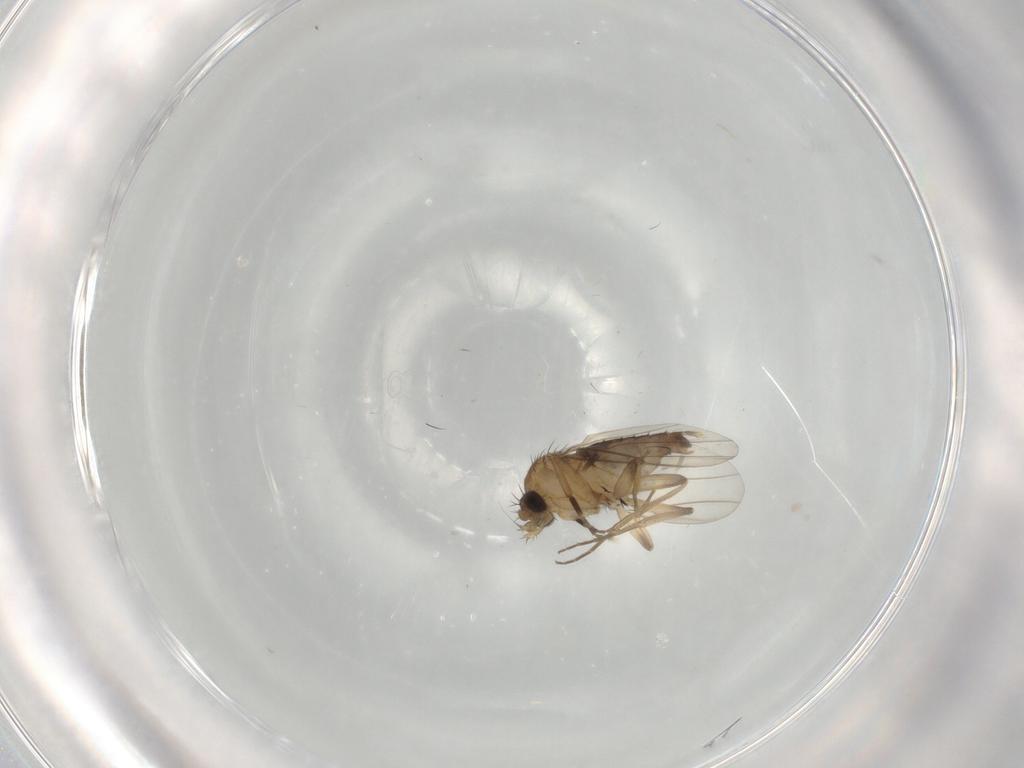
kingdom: Animalia
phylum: Arthropoda
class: Insecta
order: Diptera
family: Phoridae
